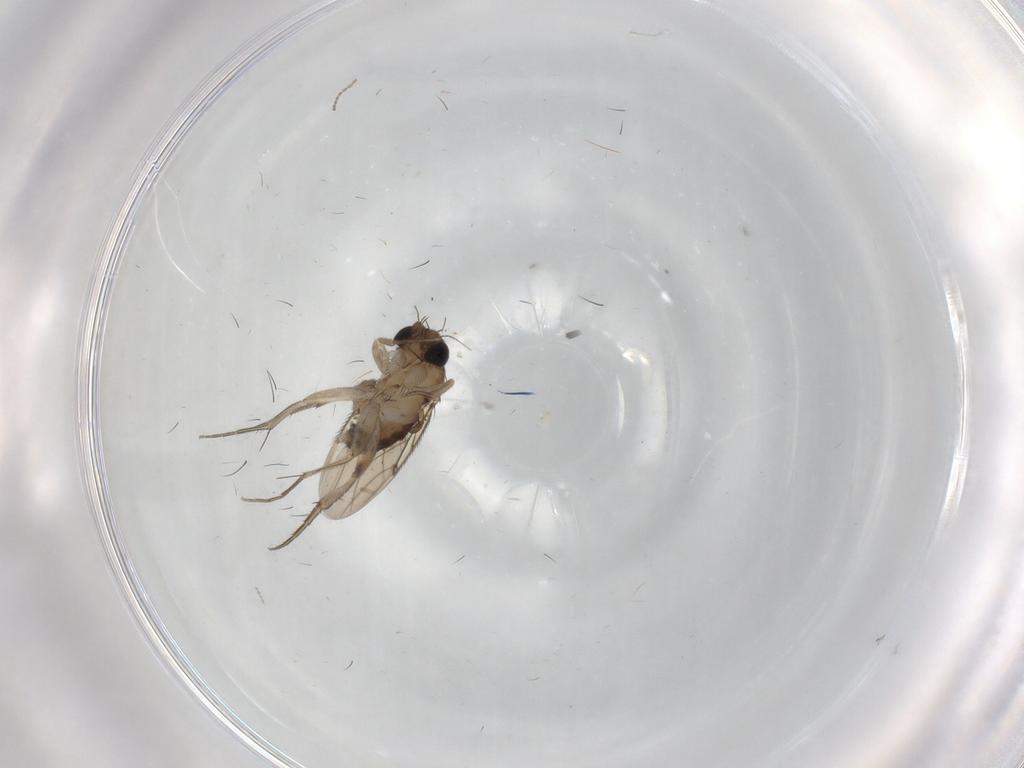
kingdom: Animalia
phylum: Arthropoda
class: Insecta
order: Diptera
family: Phoridae
